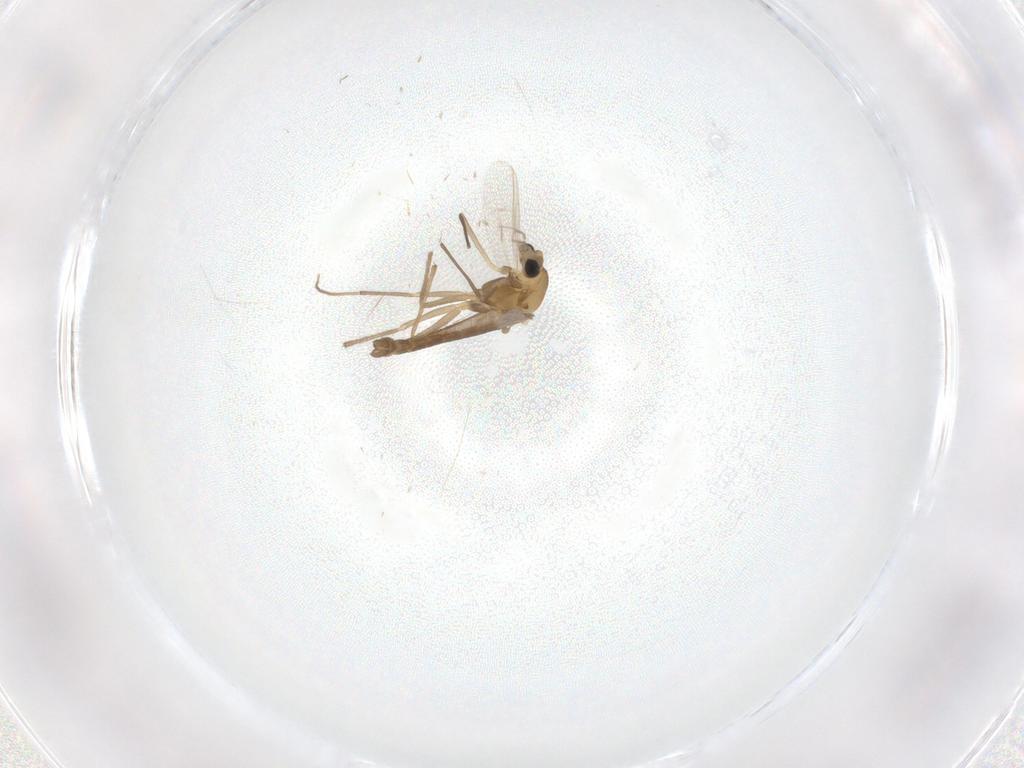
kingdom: Animalia
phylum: Arthropoda
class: Insecta
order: Diptera
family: Chironomidae
